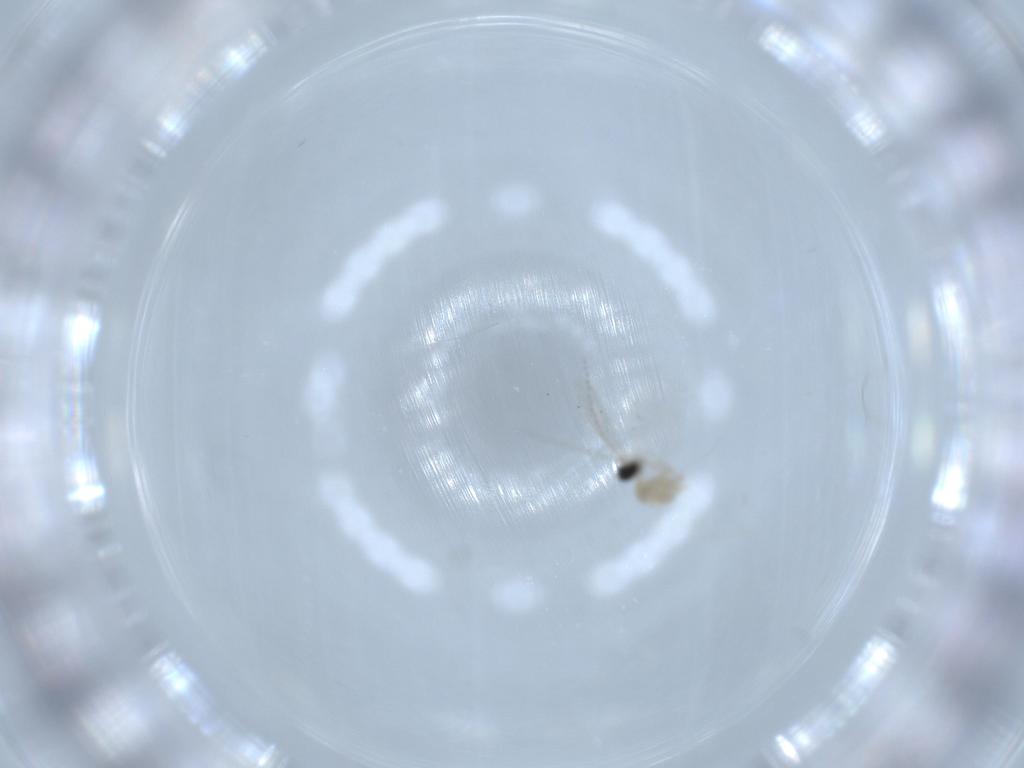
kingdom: Animalia
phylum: Arthropoda
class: Insecta
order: Diptera
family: Cecidomyiidae
